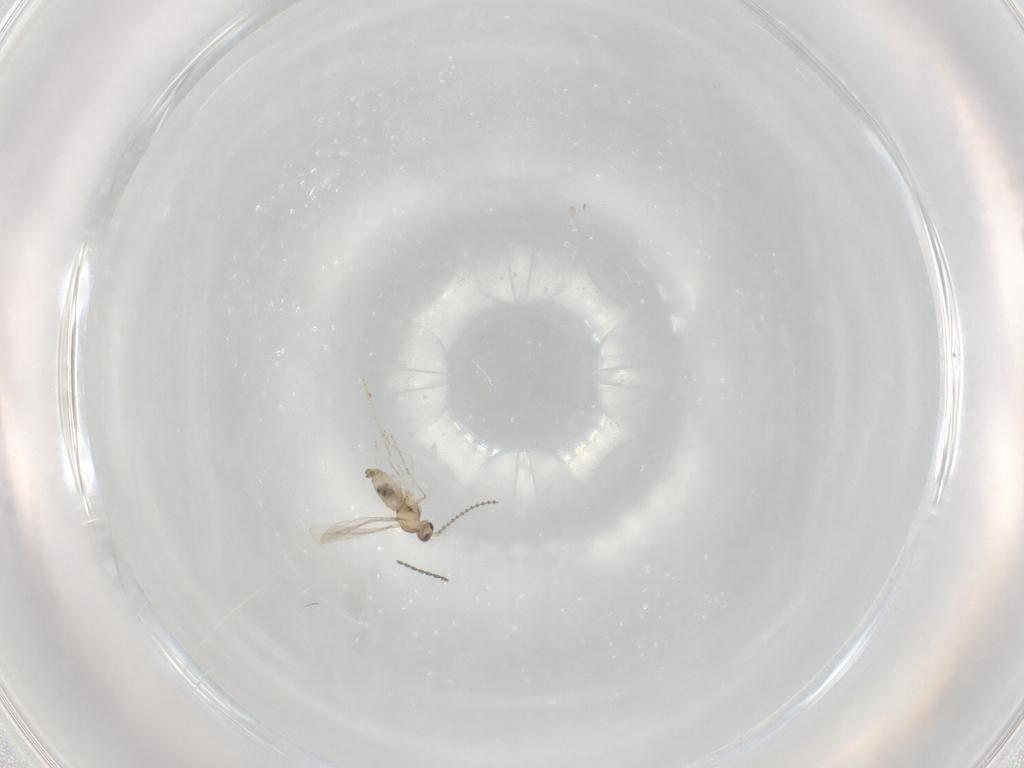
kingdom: Animalia
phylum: Arthropoda
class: Insecta
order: Diptera
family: Cecidomyiidae
